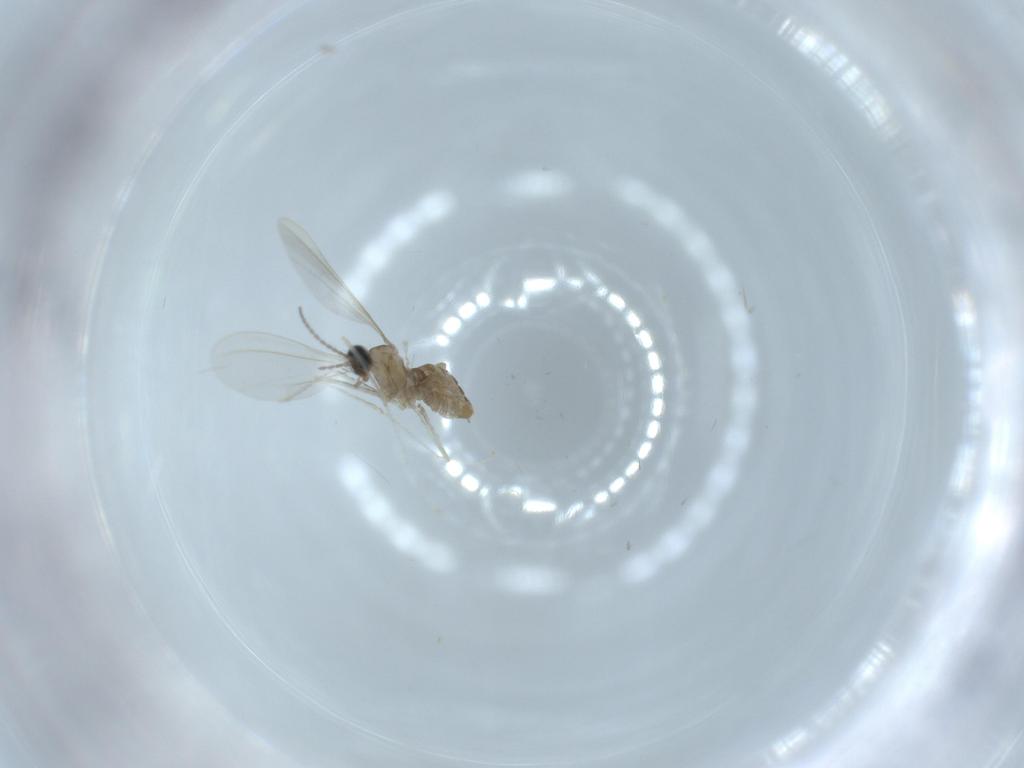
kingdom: Animalia
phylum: Arthropoda
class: Insecta
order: Diptera
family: Cecidomyiidae
